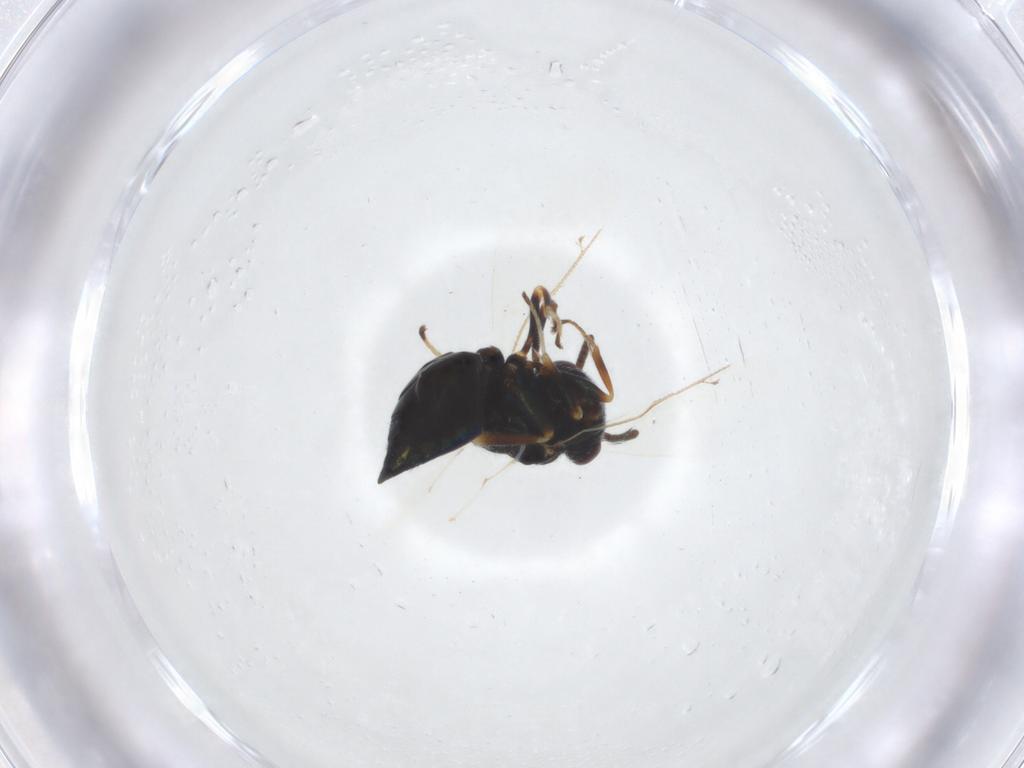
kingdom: Animalia
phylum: Arthropoda
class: Insecta
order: Hymenoptera
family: Pteromalidae
